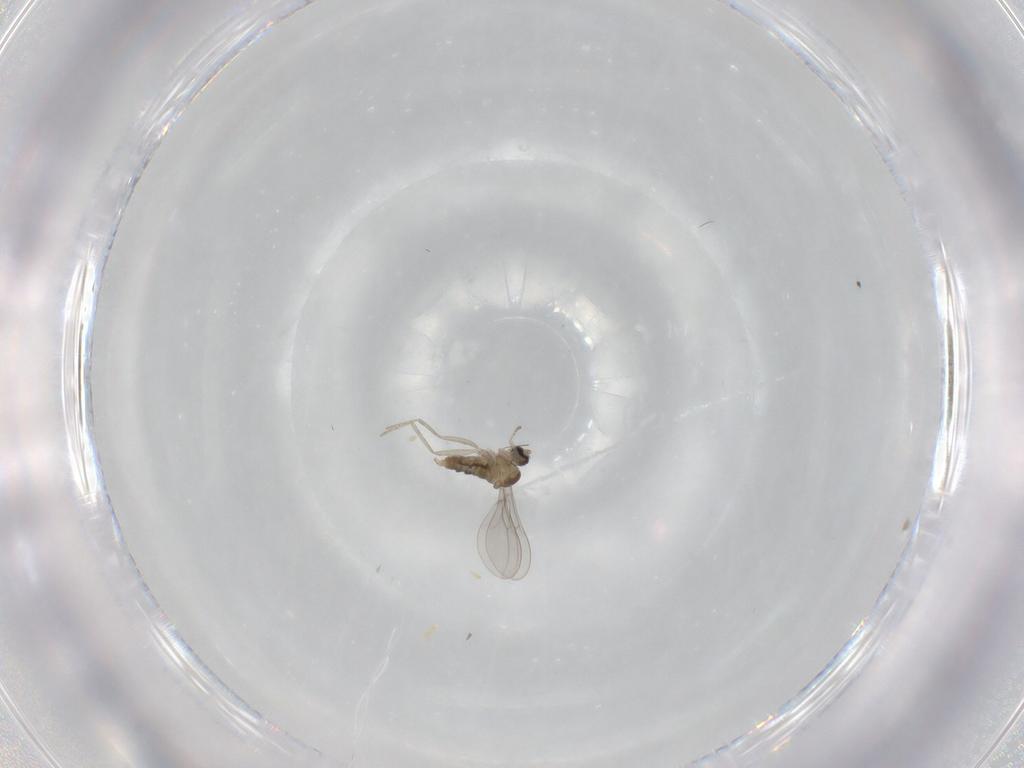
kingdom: Animalia
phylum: Arthropoda
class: Insecta
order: Diptera
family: Cecidomyiidae
